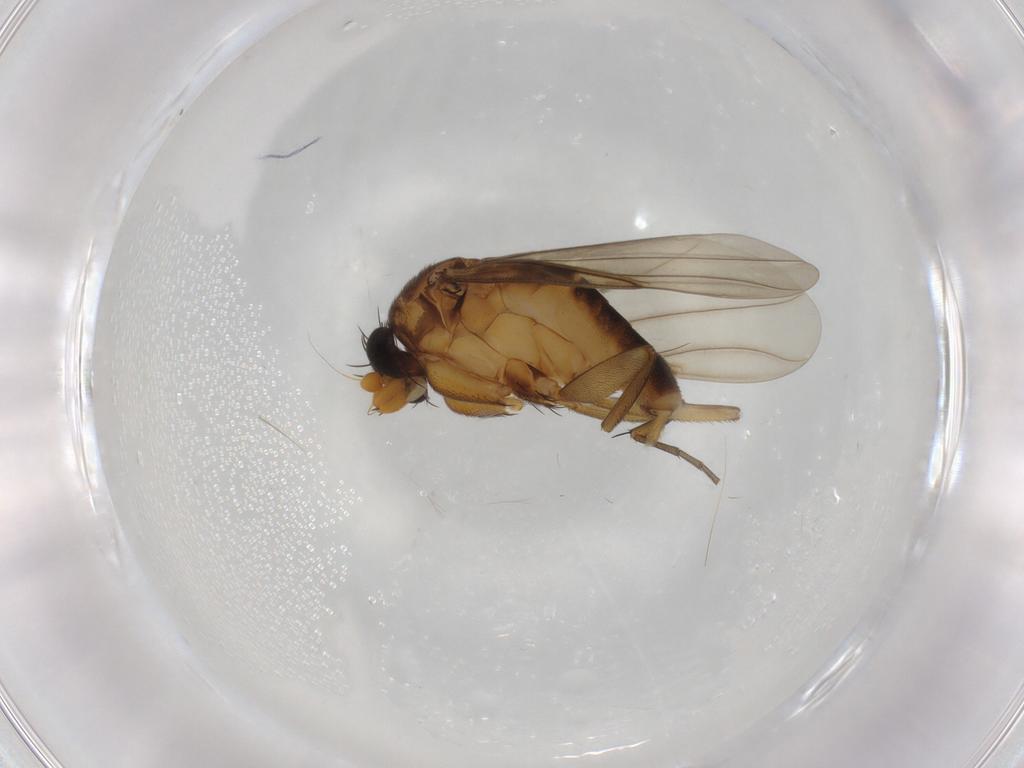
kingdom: Animalia
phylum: Arthropoda
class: Insecta
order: Diptera
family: Phoridae
